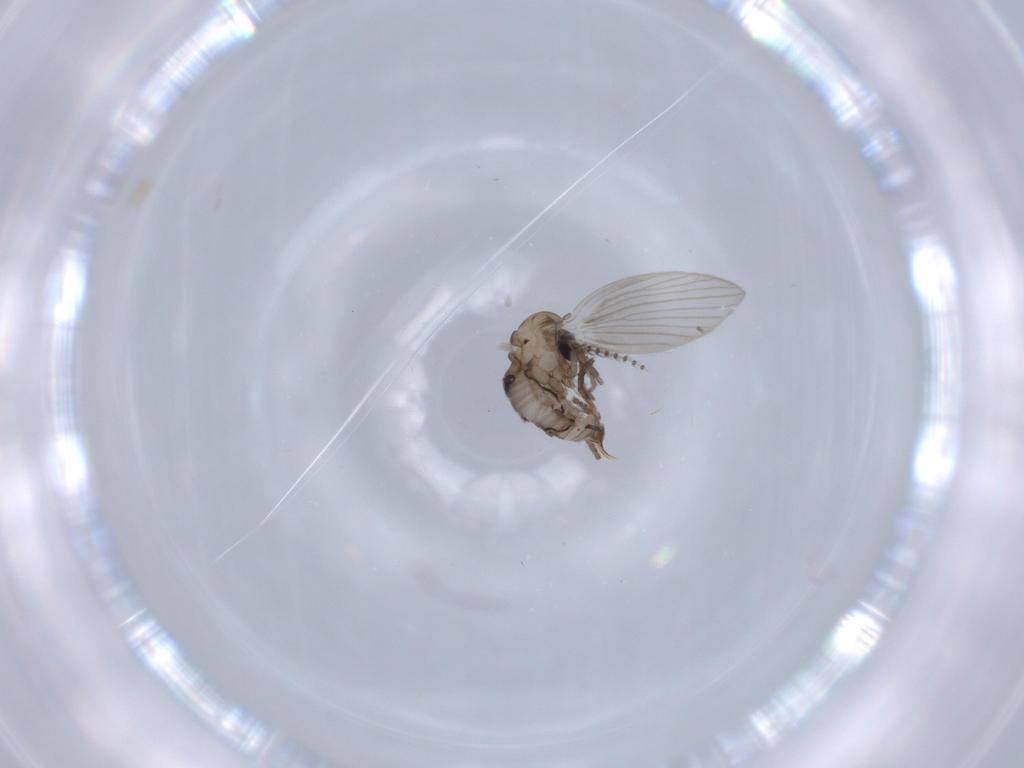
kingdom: Animalia
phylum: Arthropoda
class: Insecta
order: Diptera
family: Psychodidae
